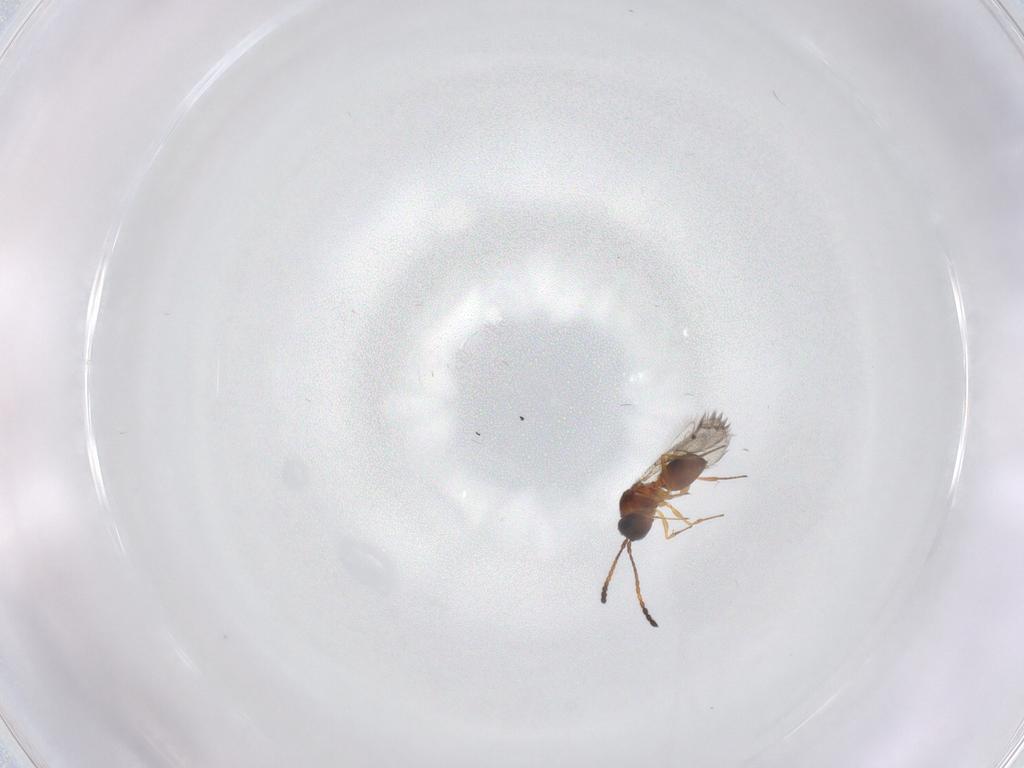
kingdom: Animalia
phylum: Arthropoda
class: Insecta
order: Hymenoptera
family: Figitidae
